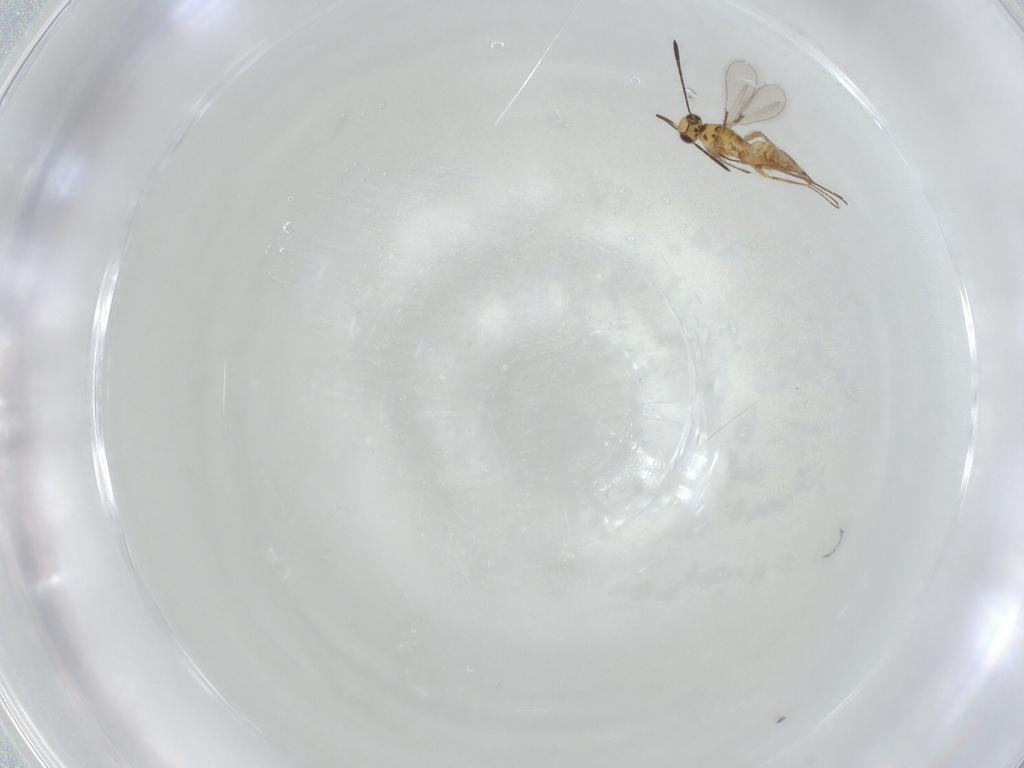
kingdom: Animalia
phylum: Arthropoda
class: Insecta
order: Hymenoptera
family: Mymaridae
